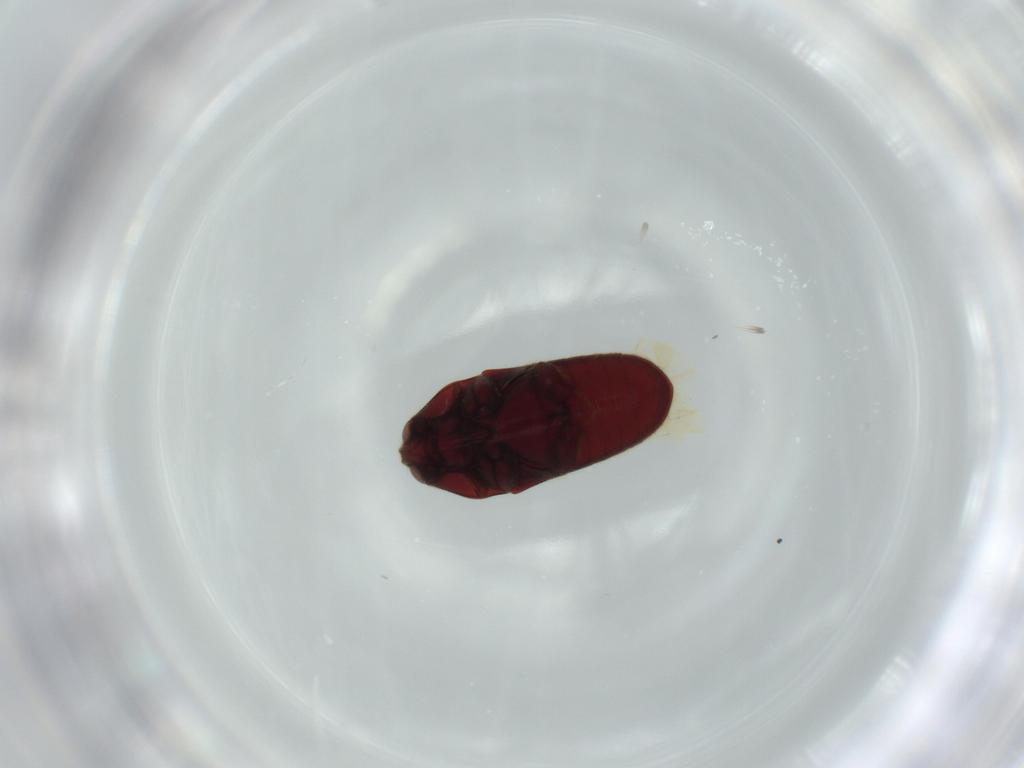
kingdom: Animalia
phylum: Arthropoda
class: Insecta
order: Coleoptera
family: Throscidae
